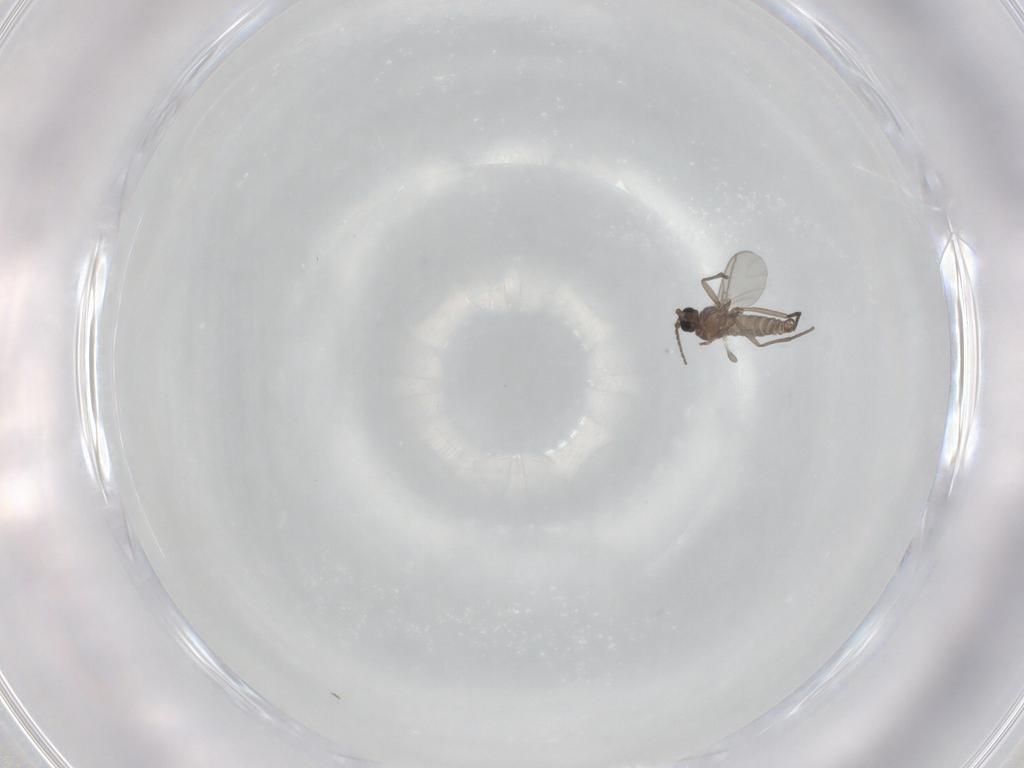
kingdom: Animalia
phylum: Arthropoda
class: Insecta
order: Diptera
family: Sciaridae
